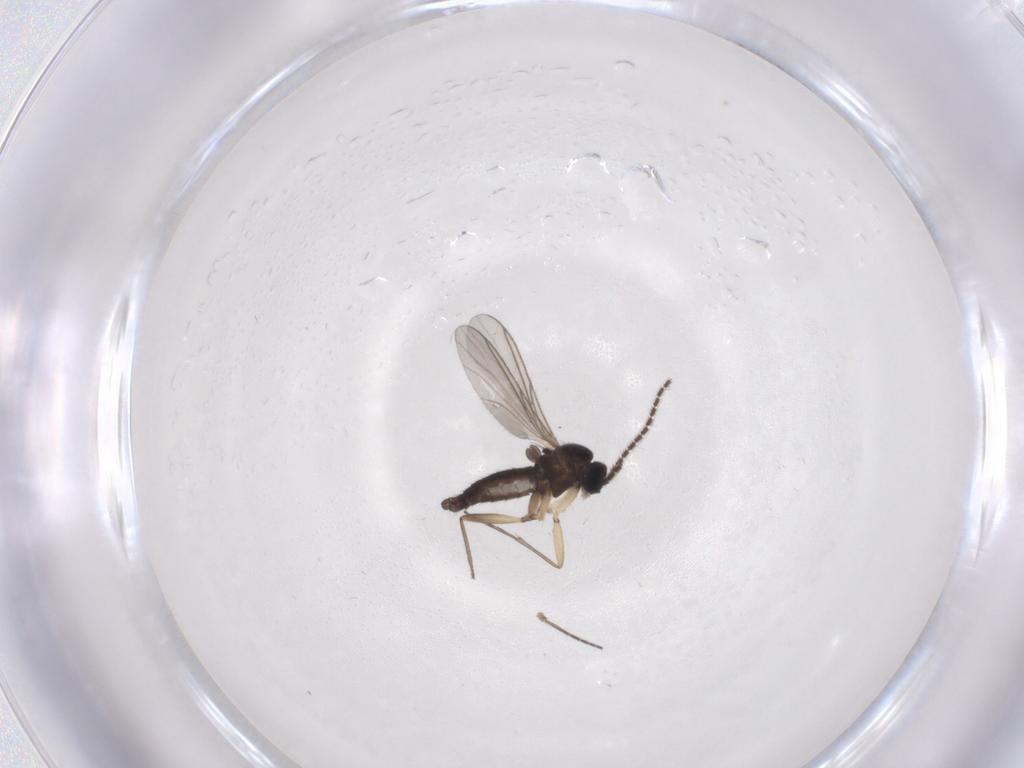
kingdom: Animalia
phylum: Arthropoda
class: Insecta
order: Diptera
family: Sciaridae
